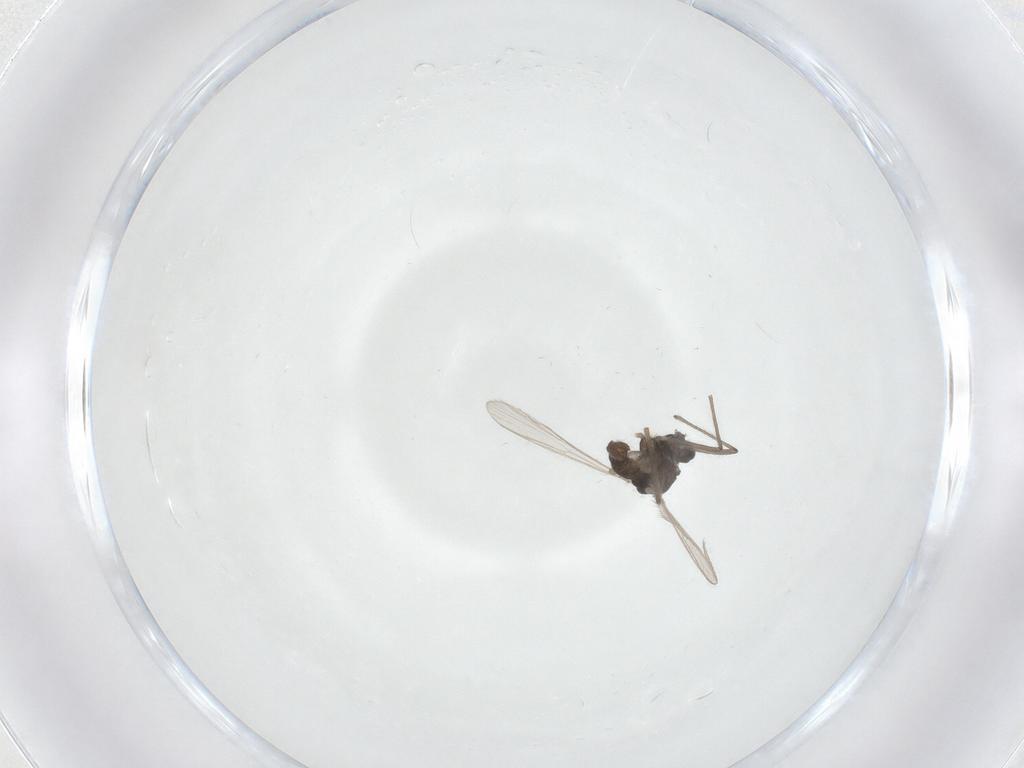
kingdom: Animalia
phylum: Arthropoda
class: Insecta
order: Diptera
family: Chironomidae
